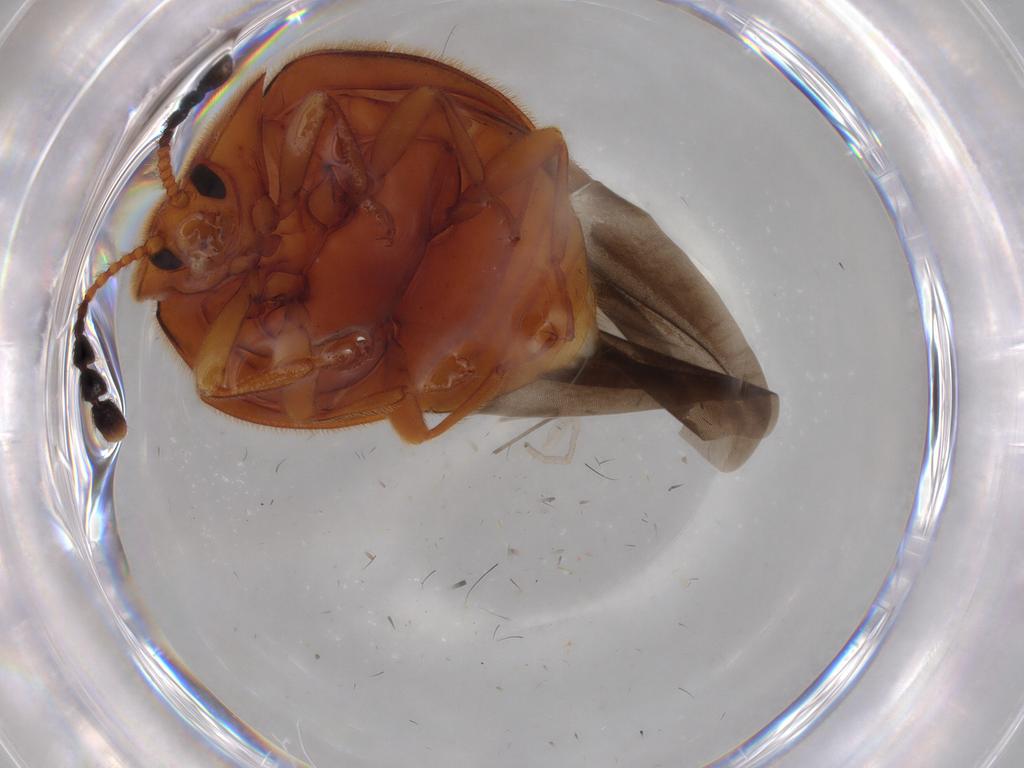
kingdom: Animalia
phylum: Arthropoda
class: Insecta
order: Coleoptera
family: Endomychidae
